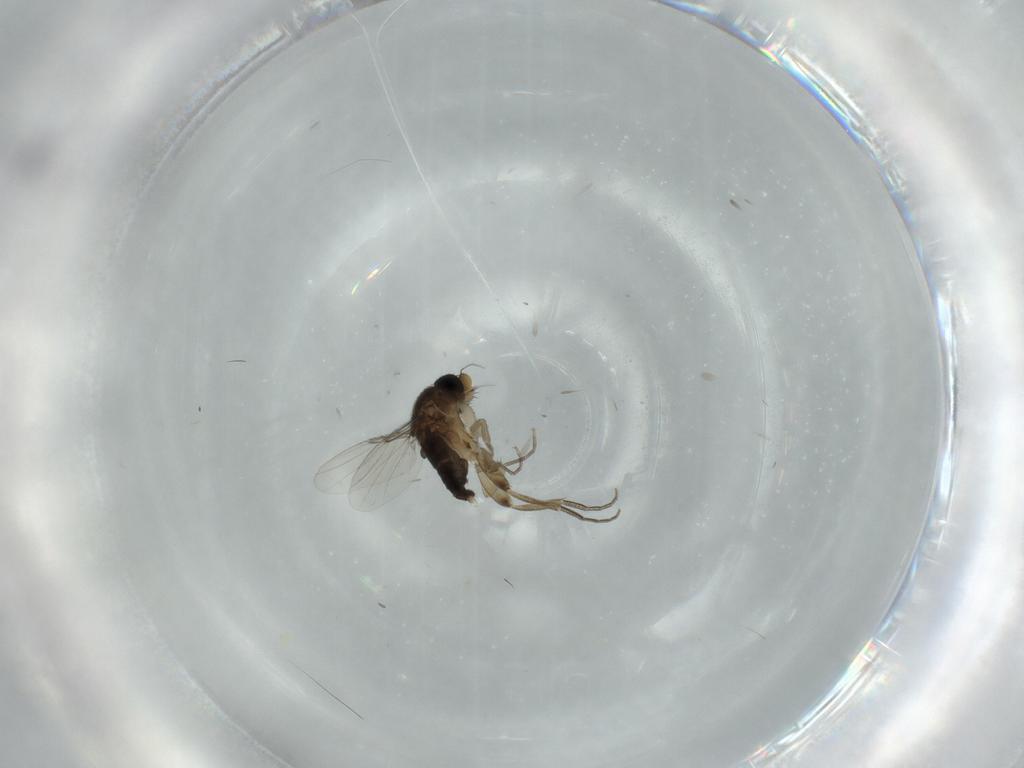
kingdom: Animalia
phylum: Arthropoda
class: Insecta
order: Diptera
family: Phoridae
